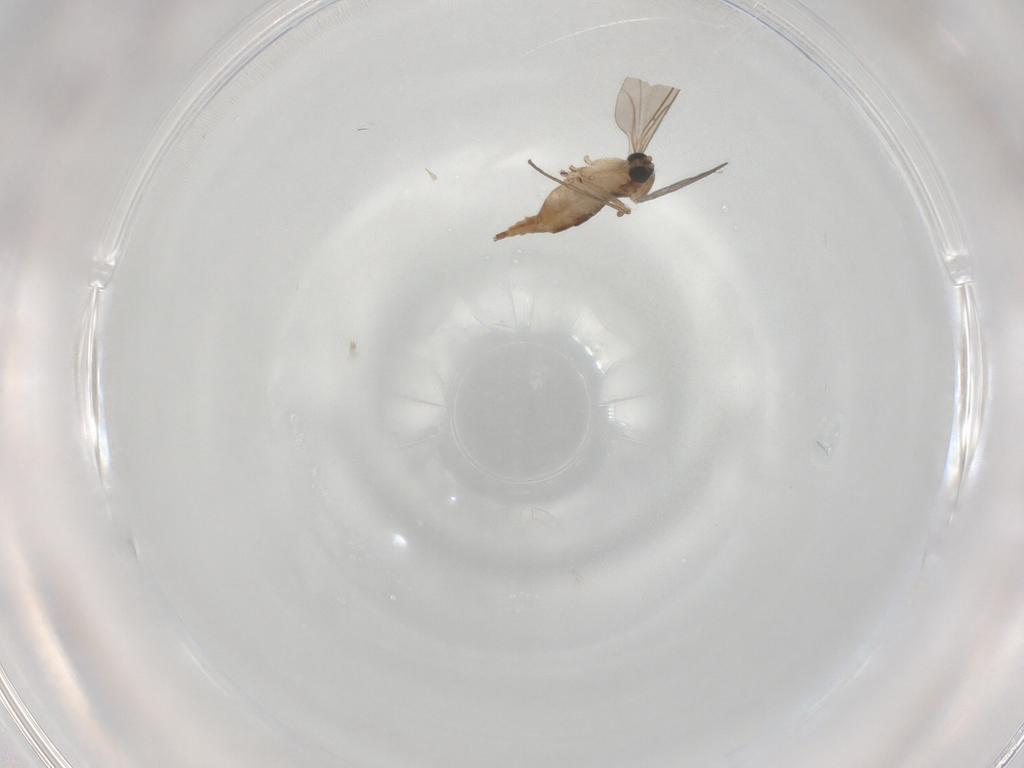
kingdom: Animalia
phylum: Arthropoda
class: Insecta
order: Diptera
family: Sciaridae
